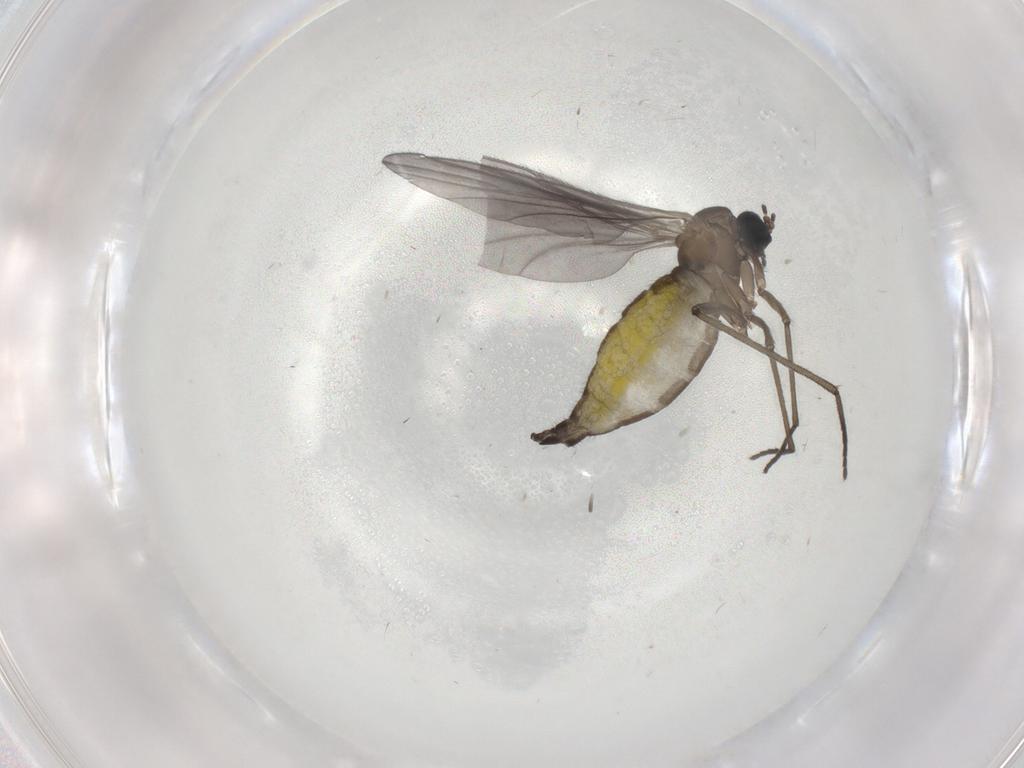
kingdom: Animalia
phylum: Arthropoda
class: Insecta
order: Diptera
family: Sciaridae
